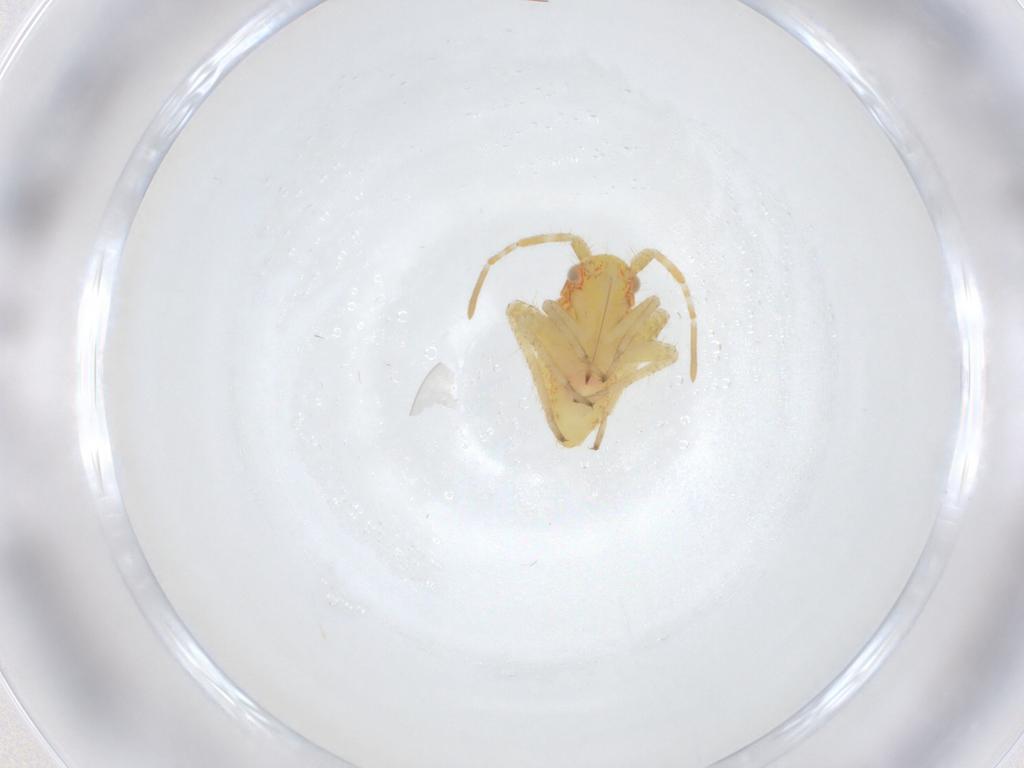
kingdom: Animalia
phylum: Arthropoda
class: Insecta
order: Hemiptera
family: Miridae
